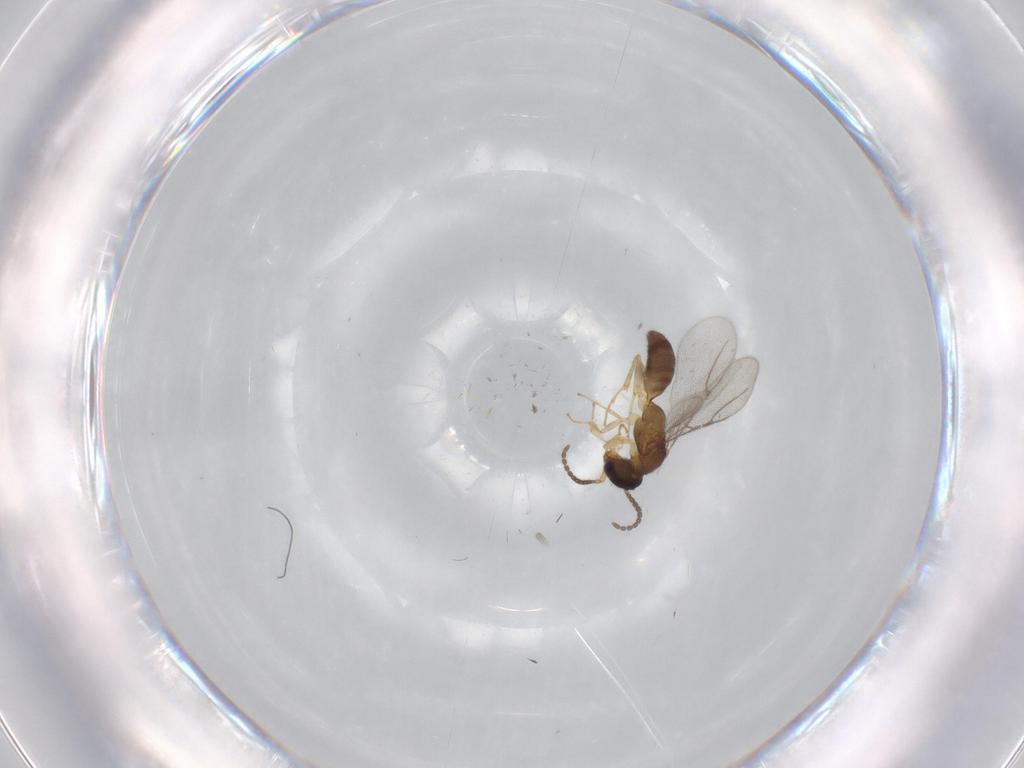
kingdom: Animalia
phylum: Arthropoda
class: Insecta
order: Hymenoptera
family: Bethylidae
